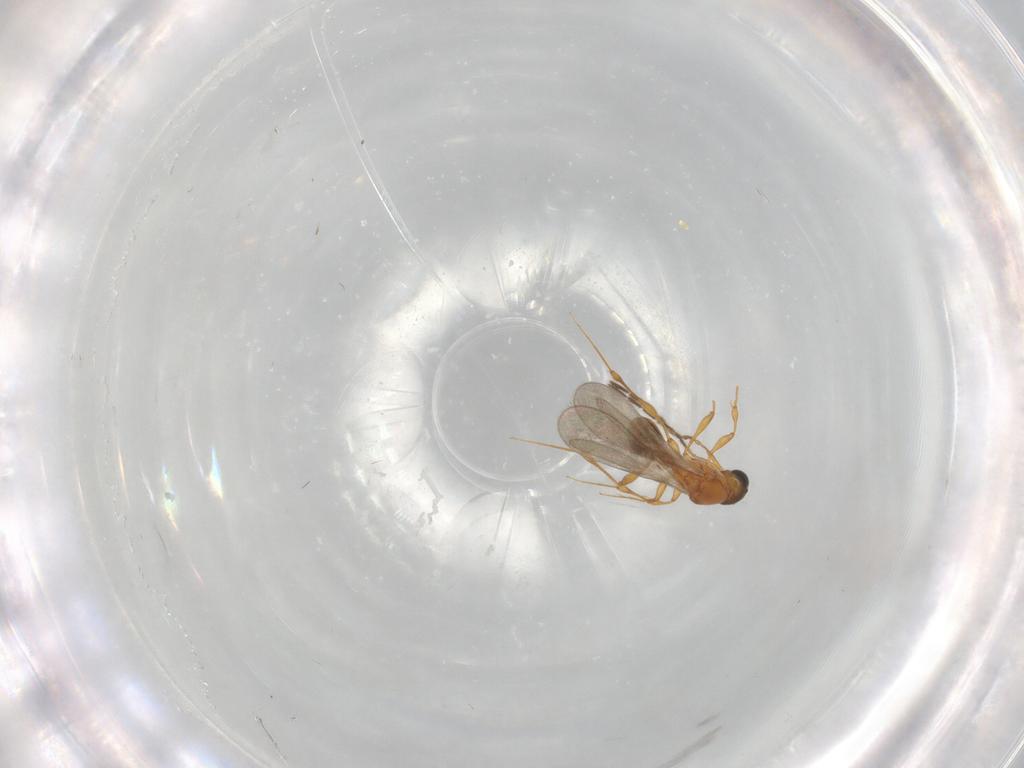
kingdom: Animalia
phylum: Arthropoda
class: Insecta
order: Hymenoptera
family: Platygastridae
